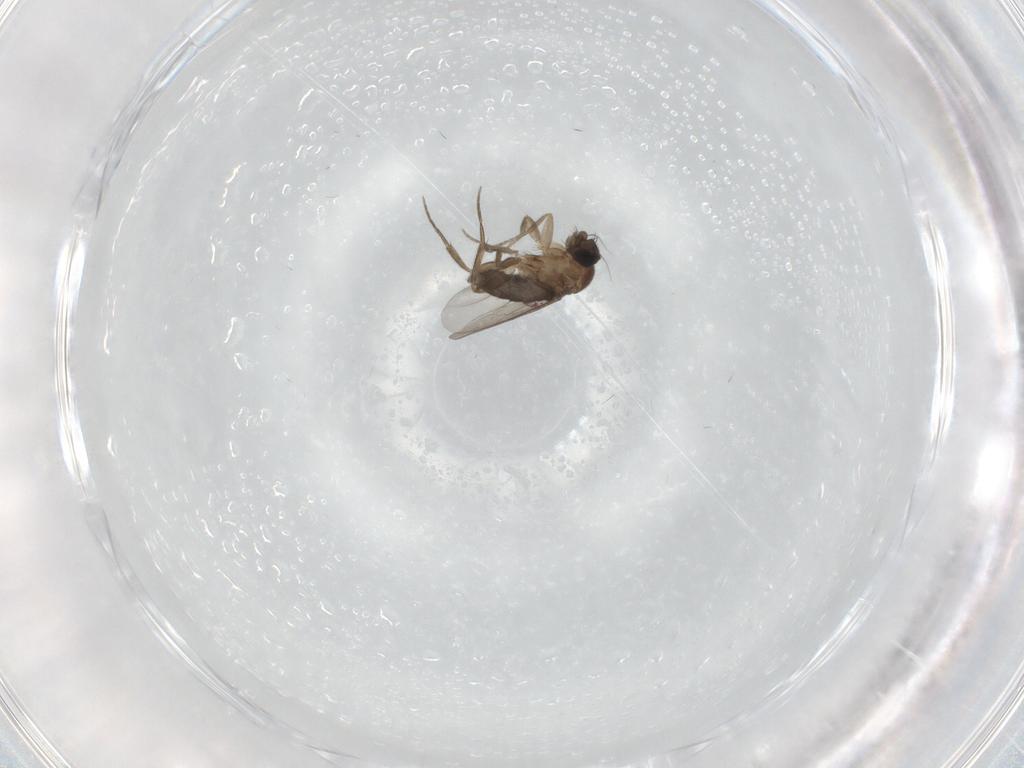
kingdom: Animalia
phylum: Arthropoda
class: Insecta
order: Diptera
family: Phoridae
